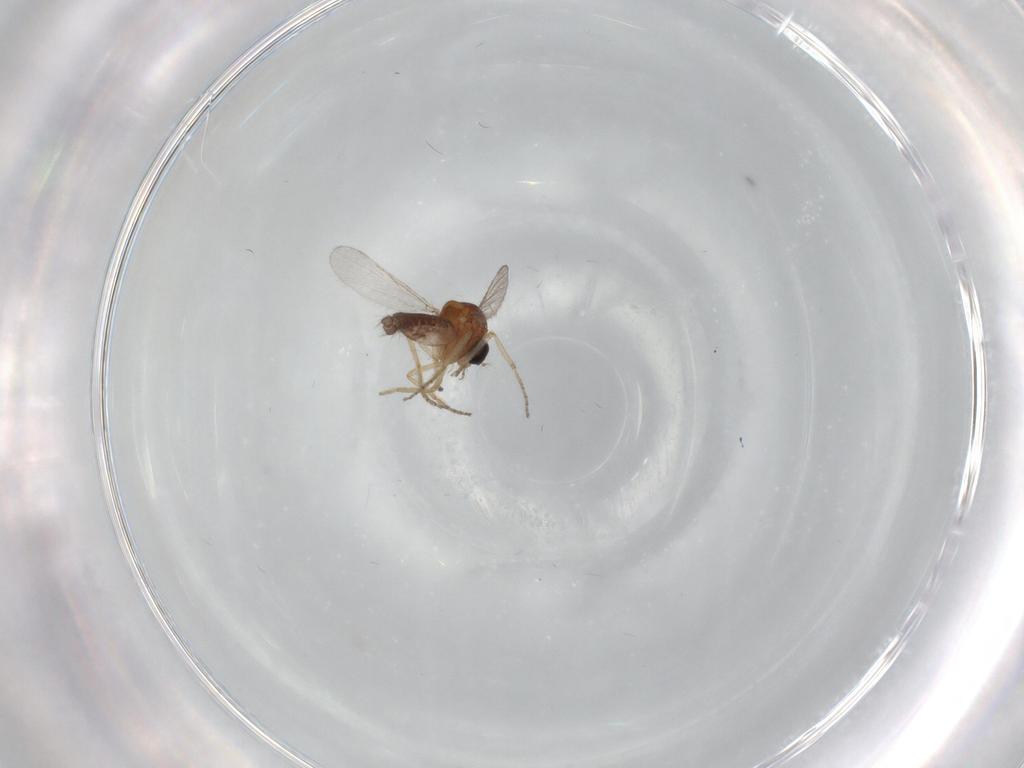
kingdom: Animalia
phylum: Arthropoda
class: Insecta
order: Diptera
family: Ceratopogonidae
